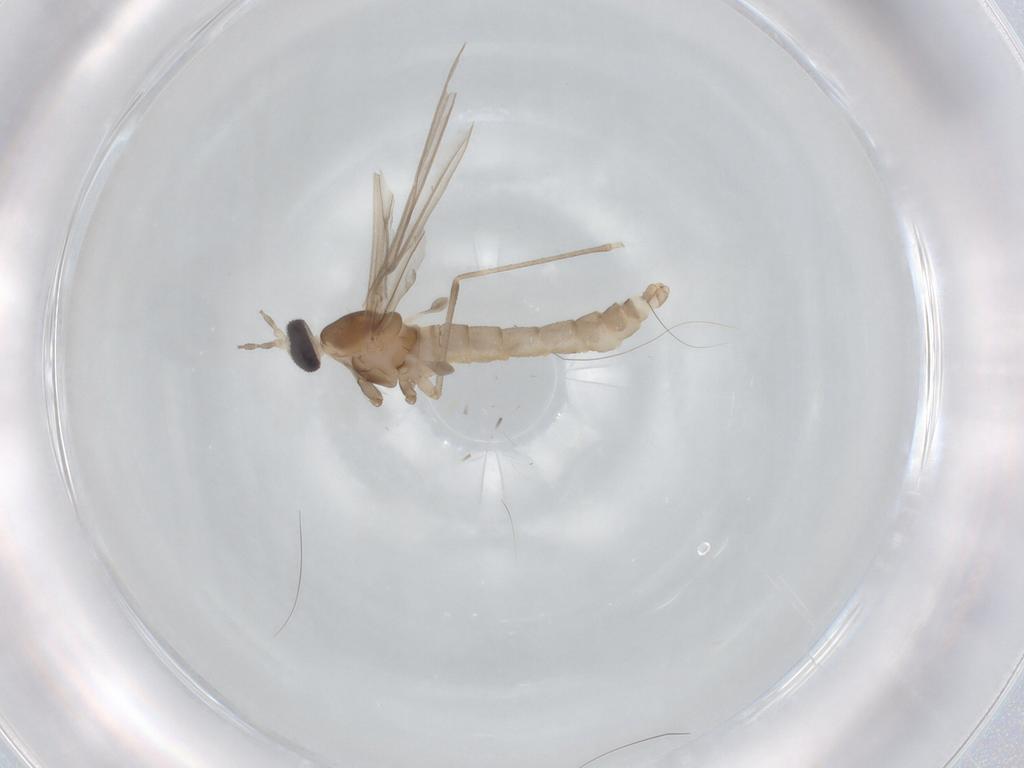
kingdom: Animalia
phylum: Arthropoda
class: Insecta
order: Diptera
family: Cecidomyiidae
